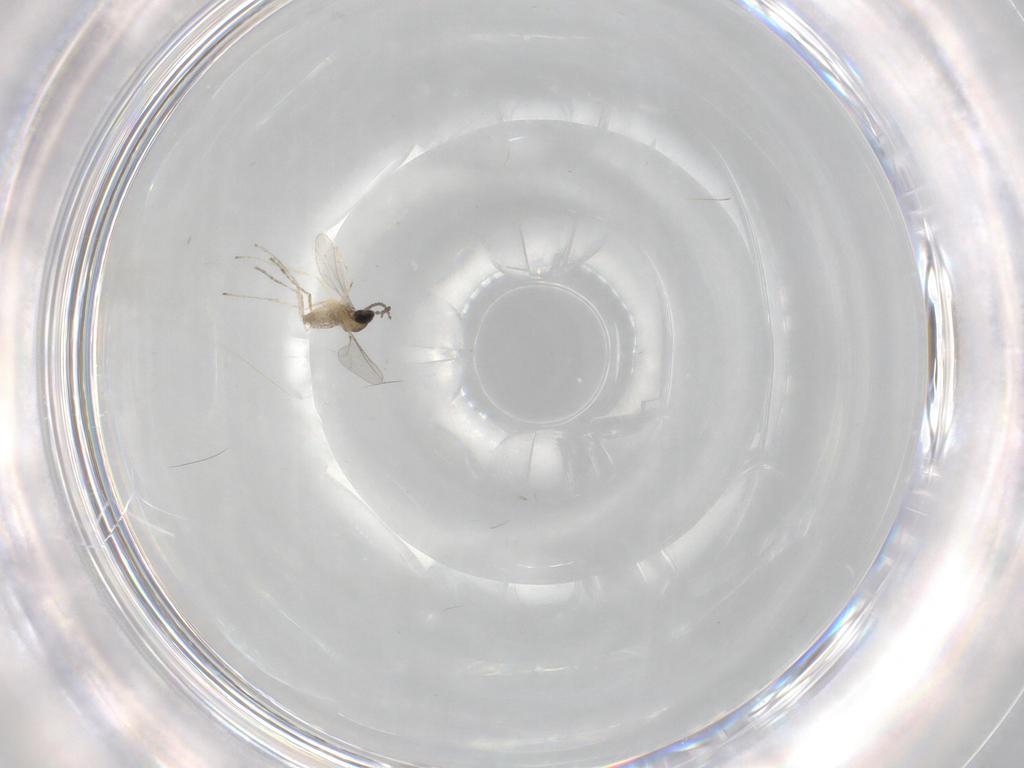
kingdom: Animalia
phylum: Arthropoda
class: Insecta
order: Diptera
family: Cecidomyiidae
